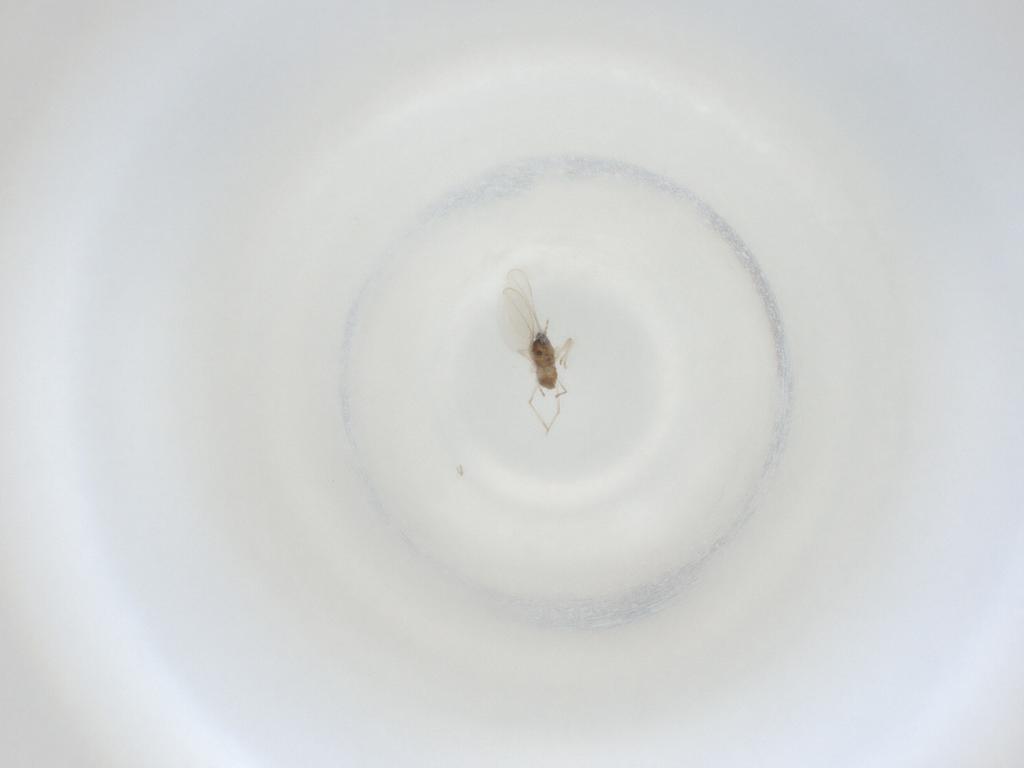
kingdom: Animalia
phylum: Arthropoda
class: Insecta
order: Diptera
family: Cecidomyiidae
